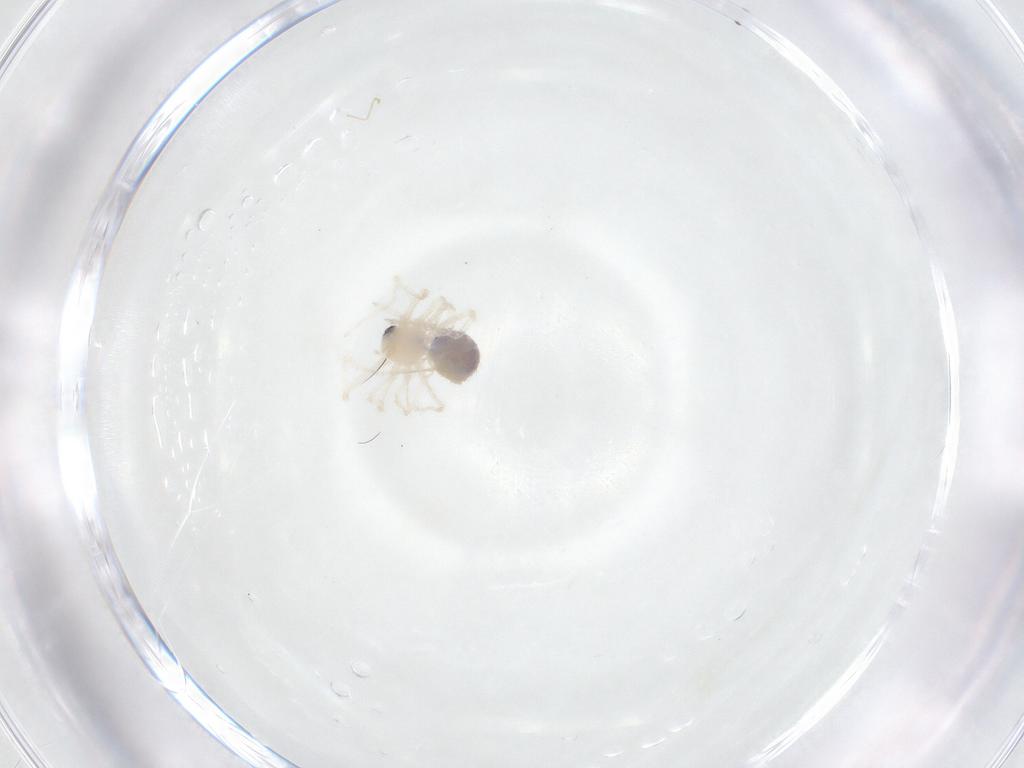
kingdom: Animalia
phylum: Arthropoda
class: Arachnida
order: Araneae
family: Pholcidae
